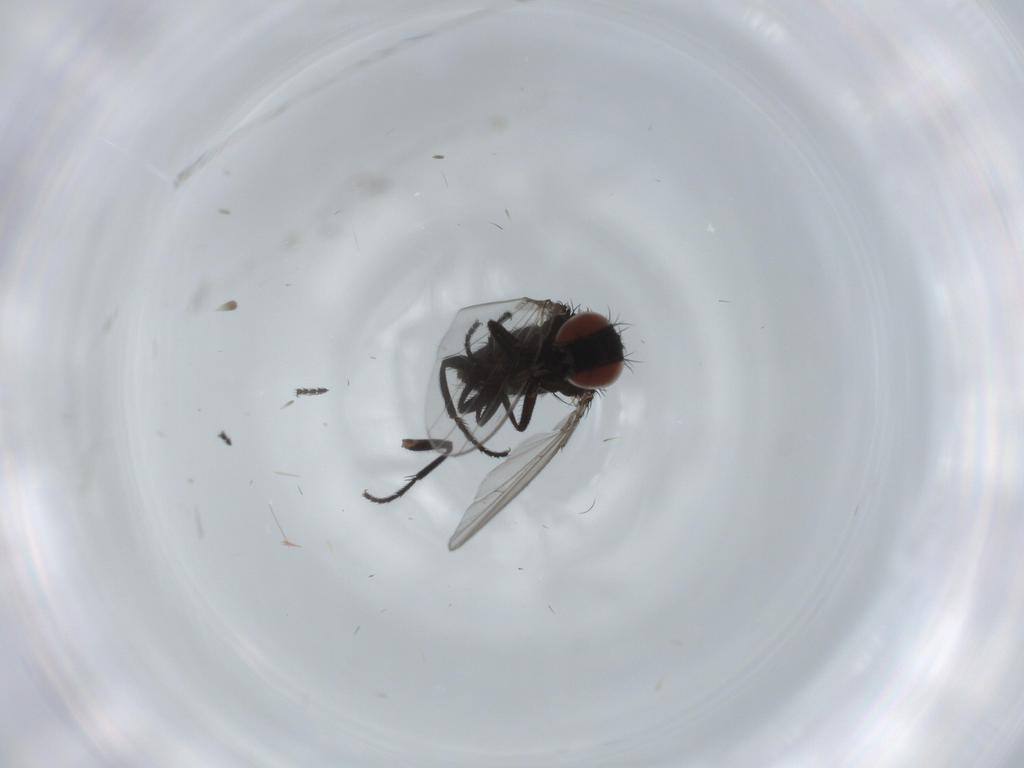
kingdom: Animalia
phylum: Arthropoda
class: Insecta
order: Diptera
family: Milichiidae
